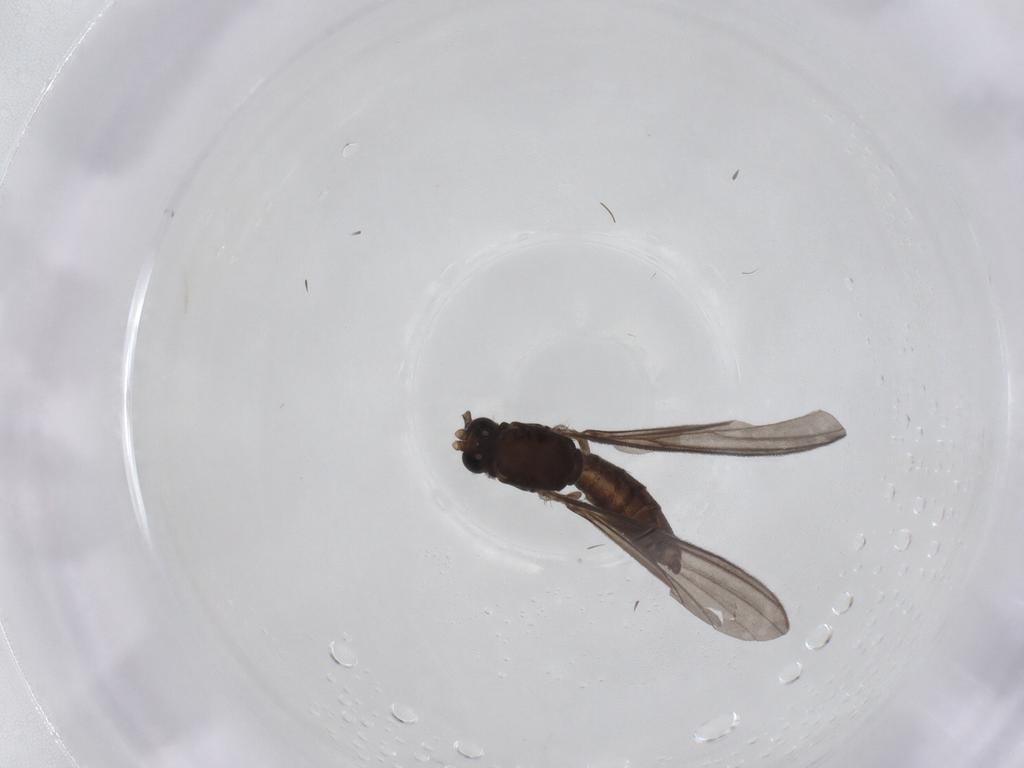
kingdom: Animalia
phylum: Arthropoda
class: Insecta
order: Diptera
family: Mycetophilidae
